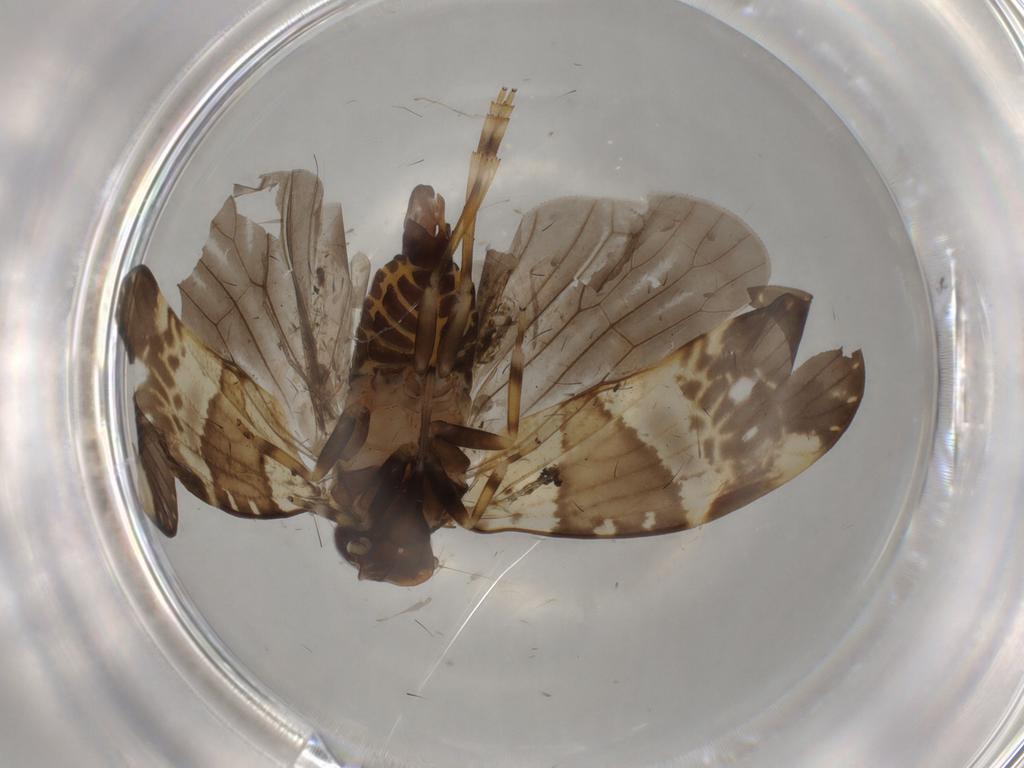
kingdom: Animalia
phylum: Arthropoda
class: Insecta
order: Hemiptera
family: Cixiidae
